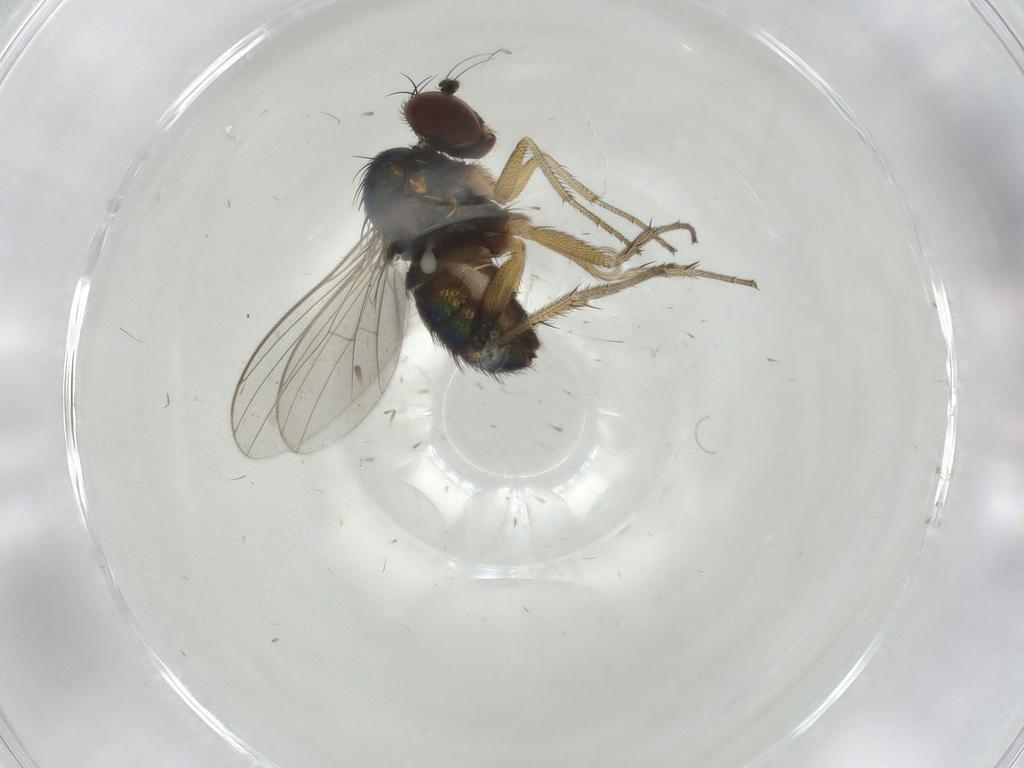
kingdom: Animalia
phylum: Arthropoda
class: Insecta
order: Diptera
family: Dolichopodidae
